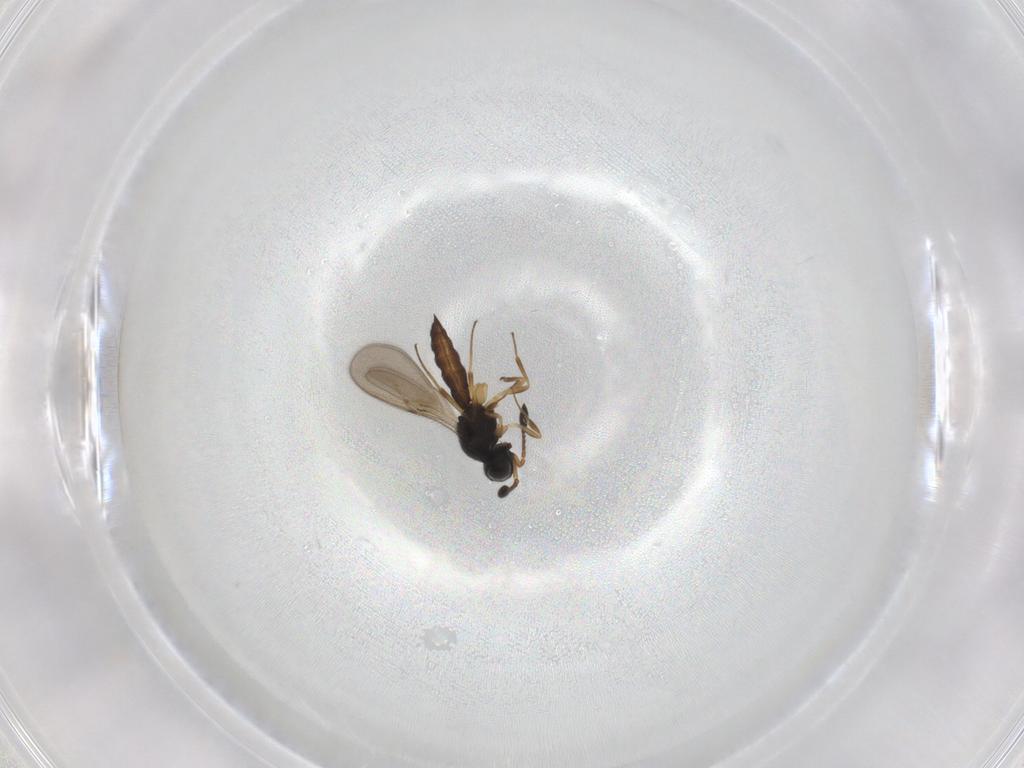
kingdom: Animalia
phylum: Arthropoda
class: Insecta
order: Hymenoptera
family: Scelionidae
